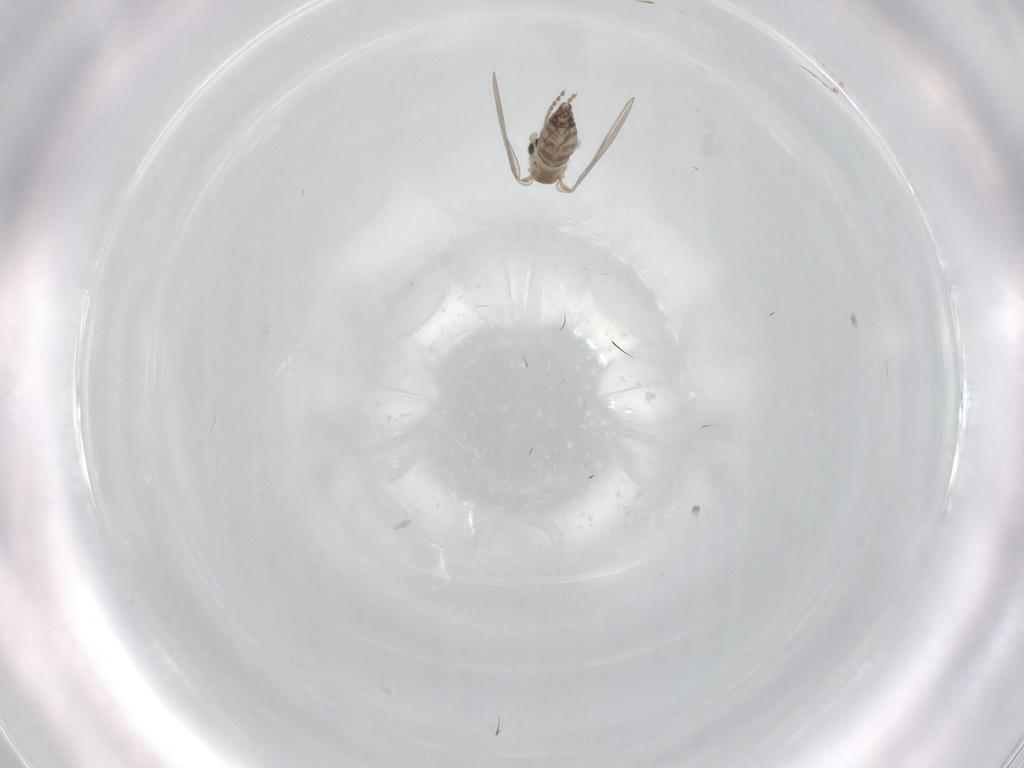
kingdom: Animalia
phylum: Arthropoda
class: Insecta
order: Diptera
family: Cecidomyiidae
